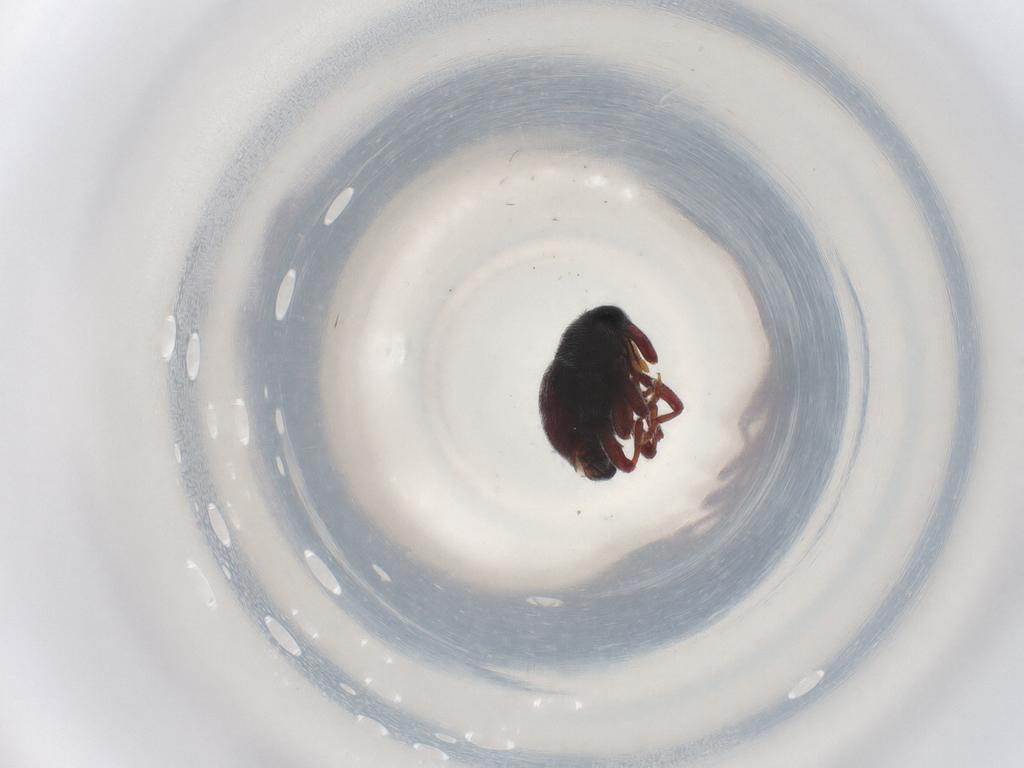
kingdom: Animalia
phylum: Arthropoda
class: Insecta
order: Coleoptera
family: Curculionidae
